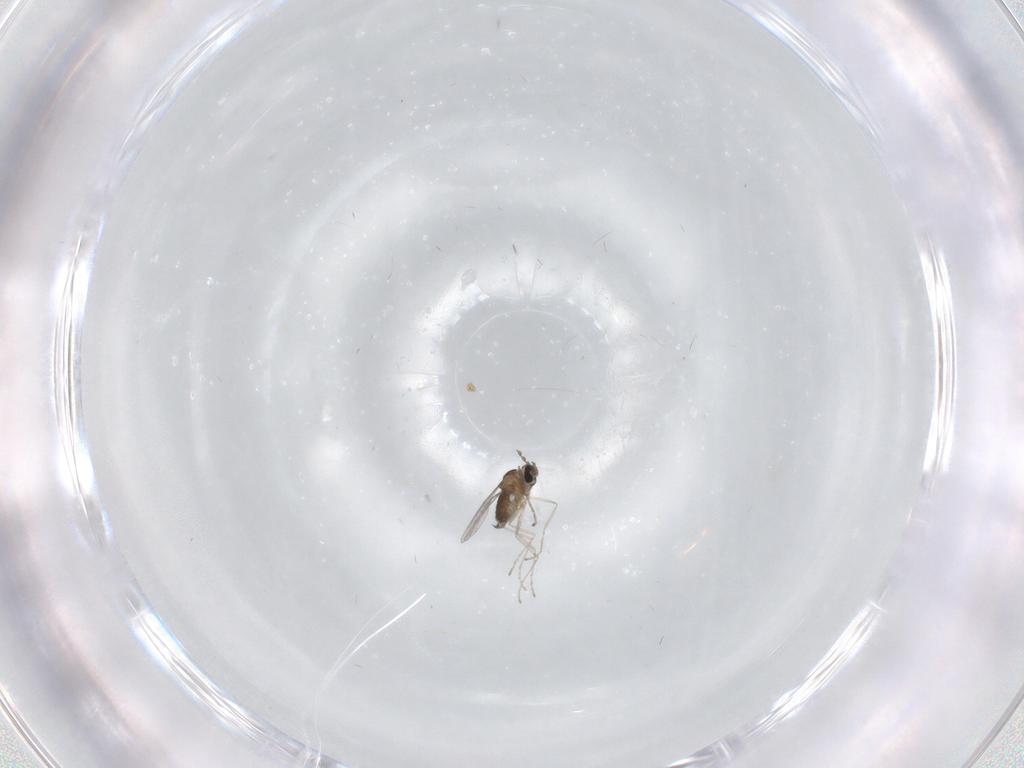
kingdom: Animalia
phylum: Arthropoda
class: Insecta
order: Diptera
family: Cecidomyiidae
